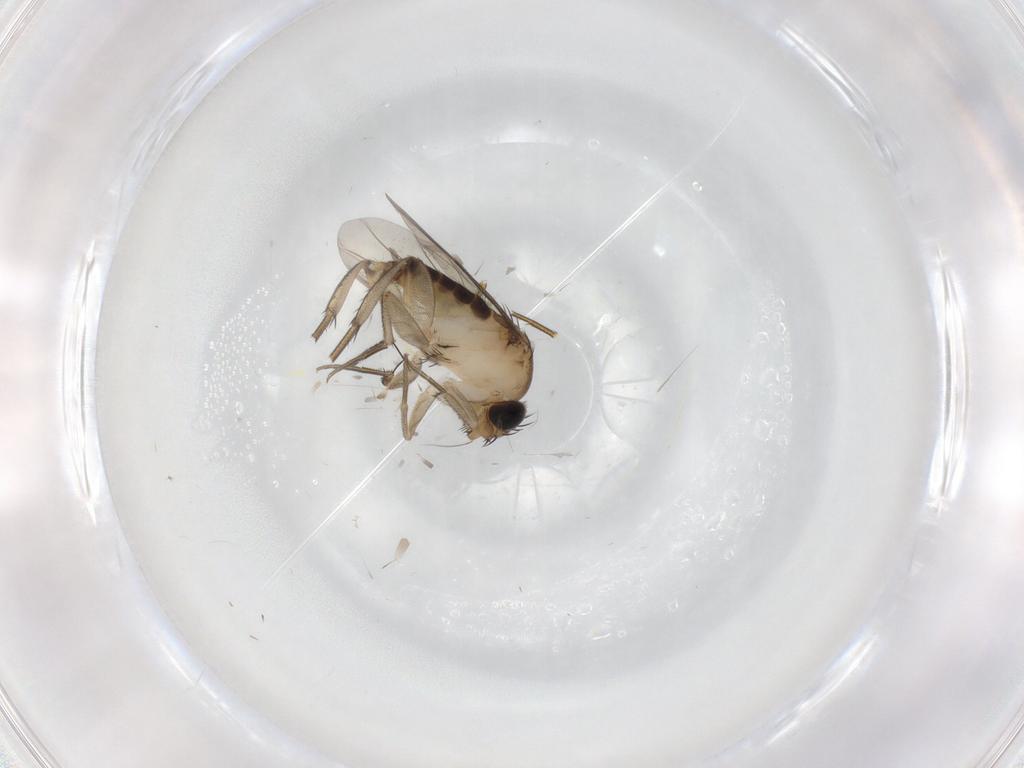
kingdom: Animalia
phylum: Arthropoda
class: Insecta
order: Diptera
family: Phoridae
